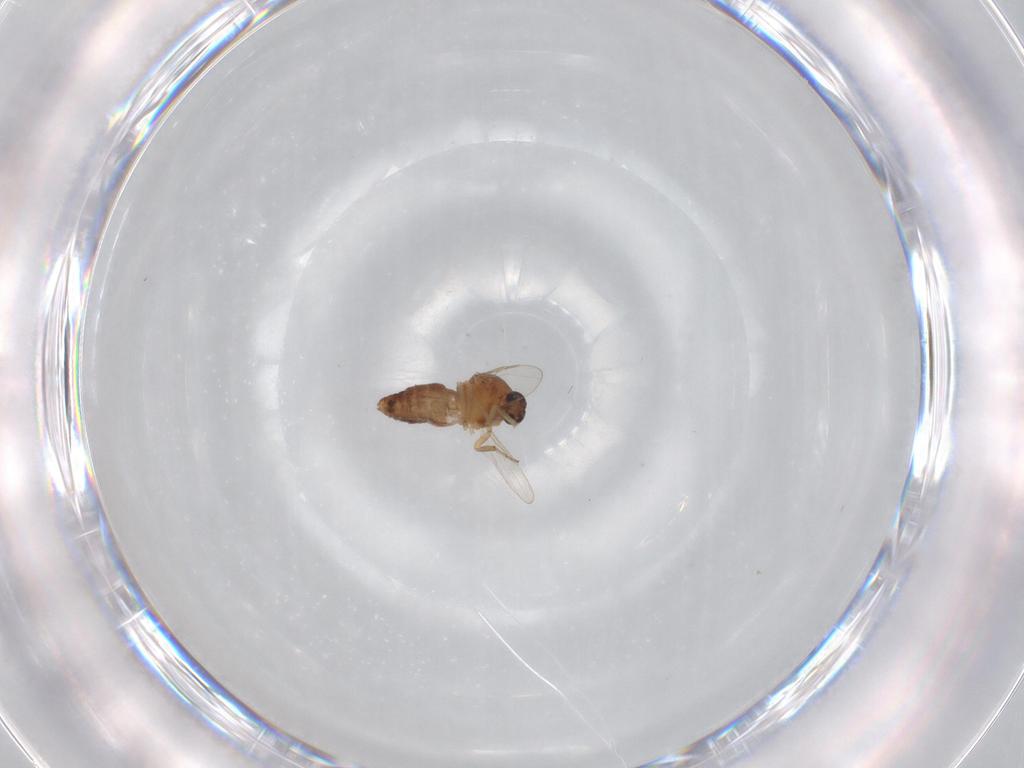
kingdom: Animalia
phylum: Arthropoda
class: Insecta
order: Diptera
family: Ceratopogonidae
